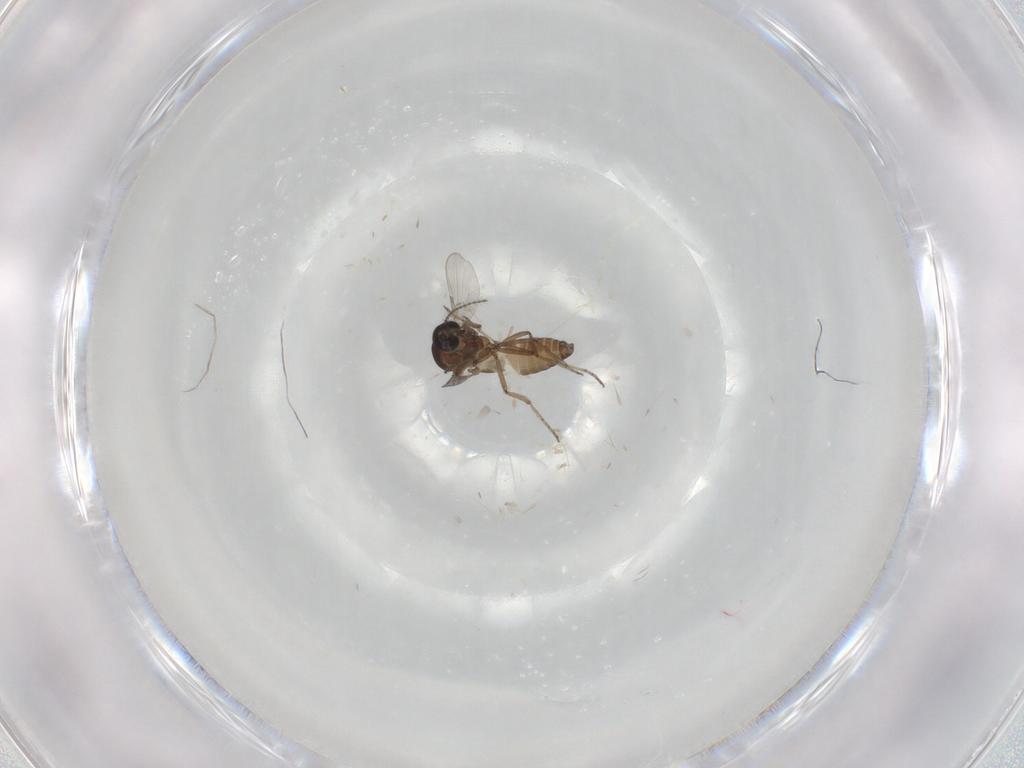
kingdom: Animalia
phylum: Arthropoda
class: Insecta
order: Diptera
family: Ceratopogonidae
